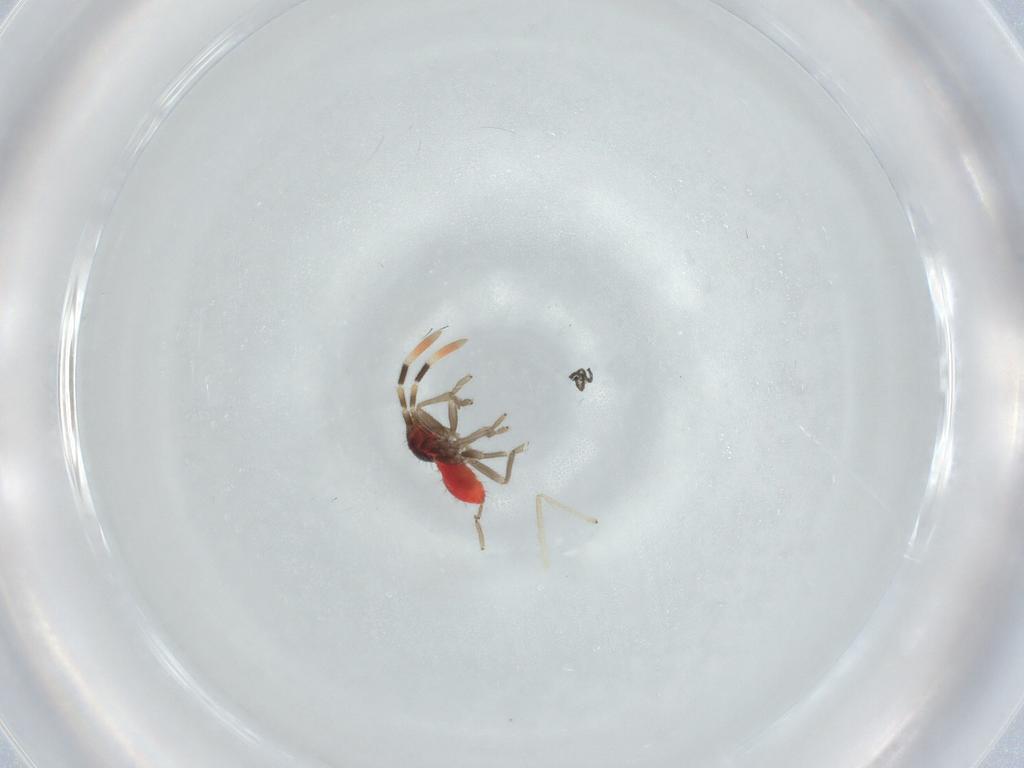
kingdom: Animalia
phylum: Arthropoda
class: Insecta
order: Hemiptera
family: Rhyparochromidae
